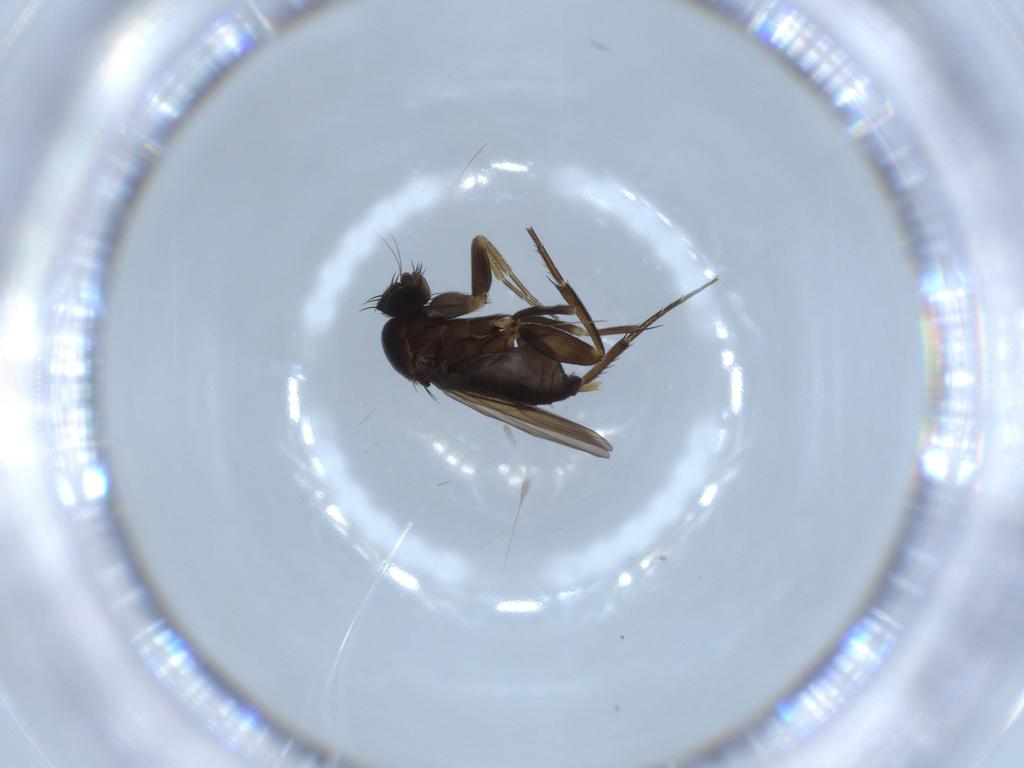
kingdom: Animalia
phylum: Arthropoda
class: Insecta
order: Diptera
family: Phoridae
